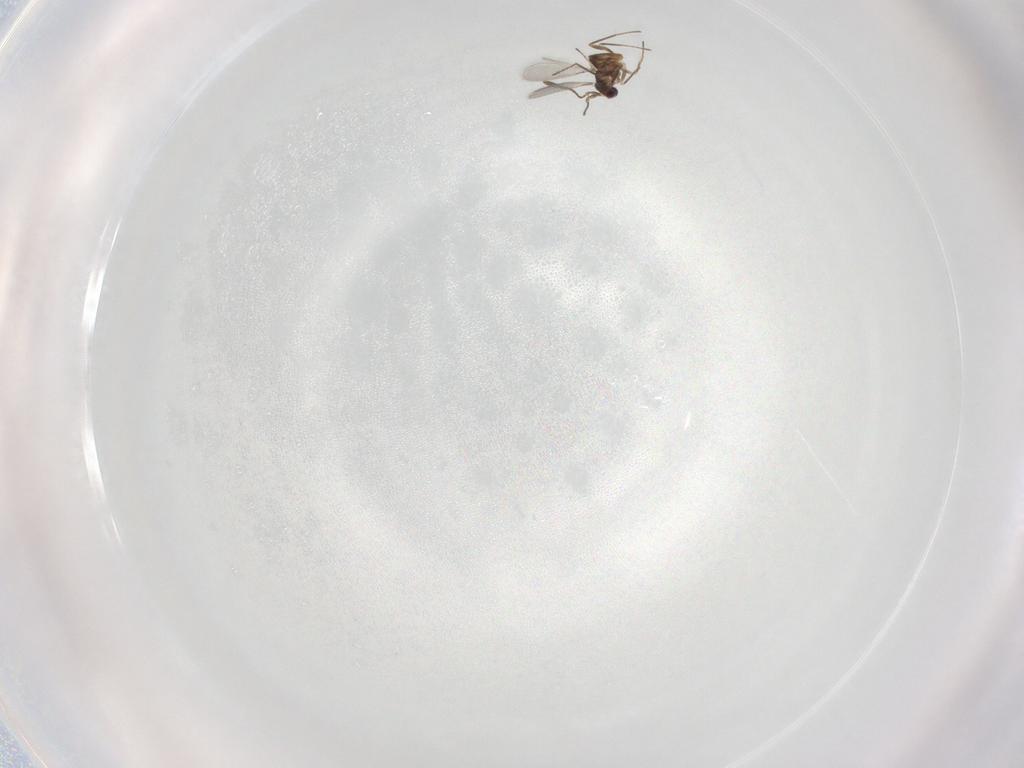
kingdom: Animalia
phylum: Arthropoda
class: Insecta
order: Hymenoptera
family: Mymaridae
